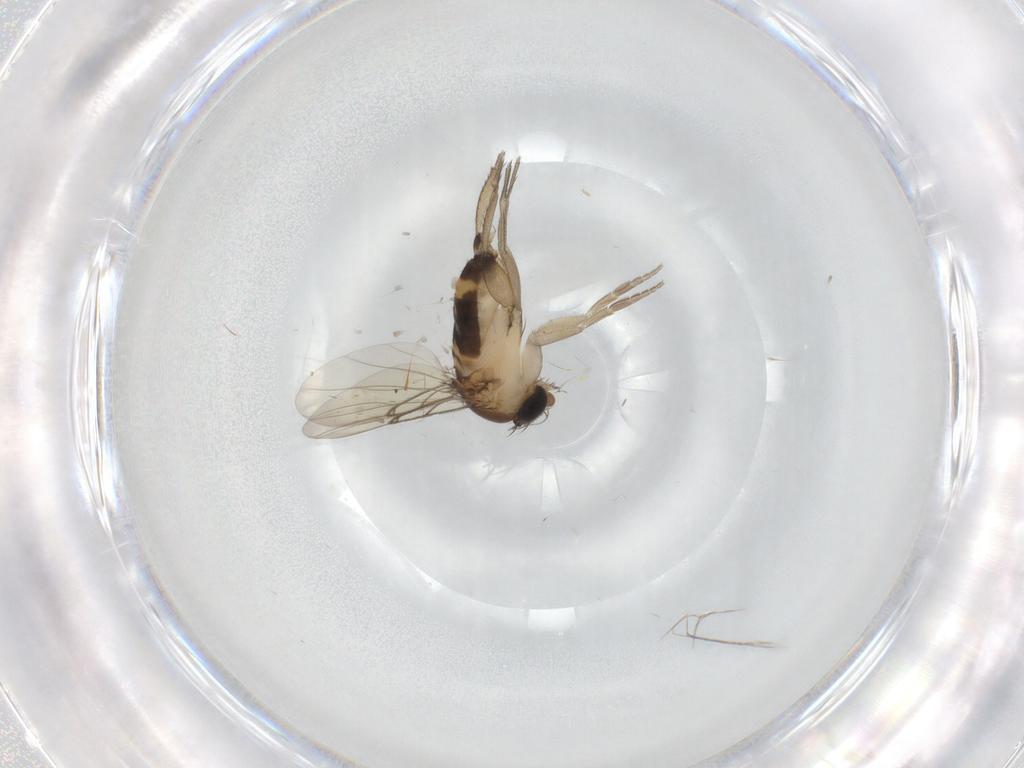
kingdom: Animalia
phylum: Arthropoda
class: Insecta
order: Diptera
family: Phoridae
